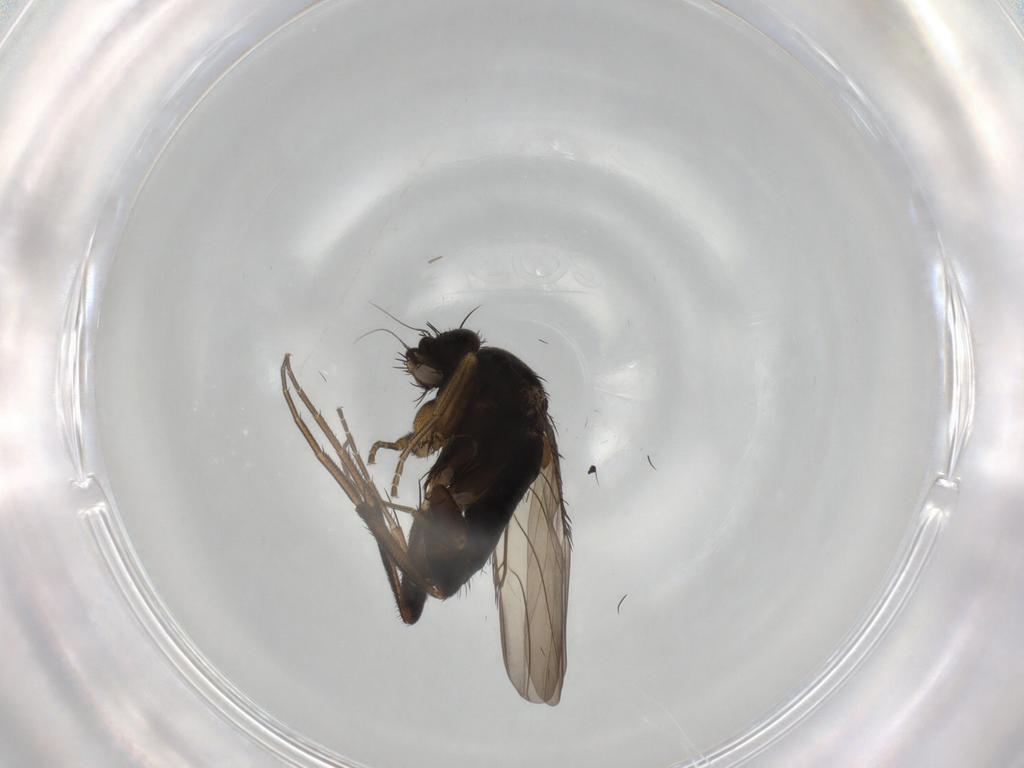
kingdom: Animalia
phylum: Arthropoda
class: Insecta
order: Diptera
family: Phoridae
